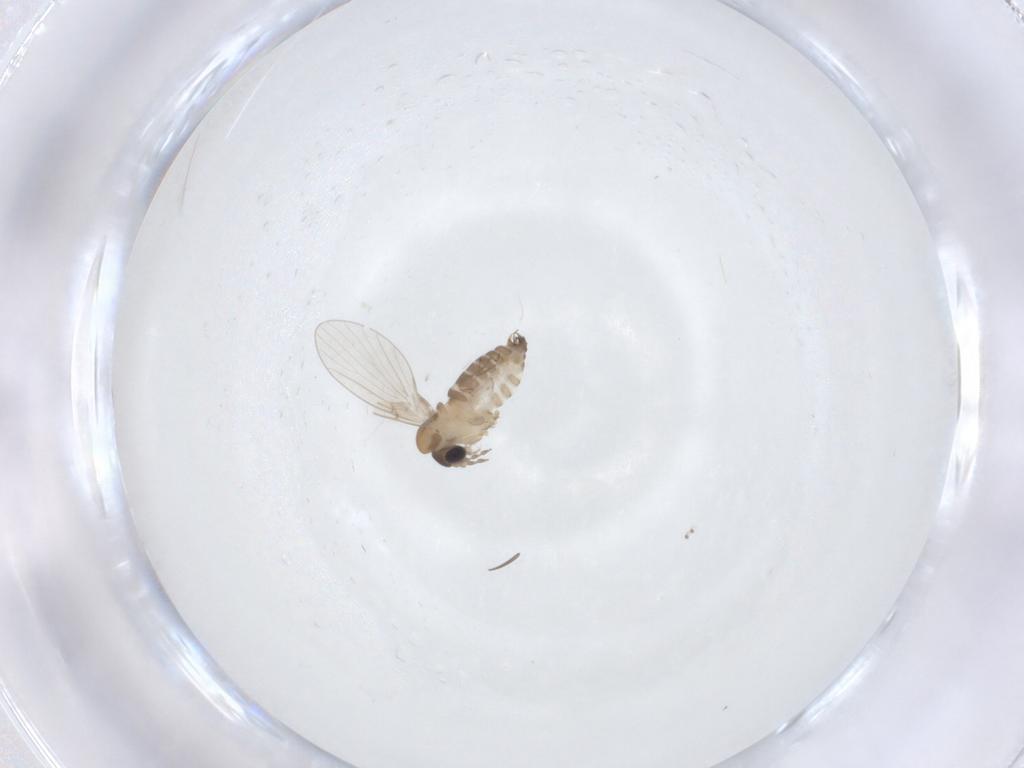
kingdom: Animalia
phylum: Arthropoda
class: Insecta
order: Diptera
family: Psychodidae
